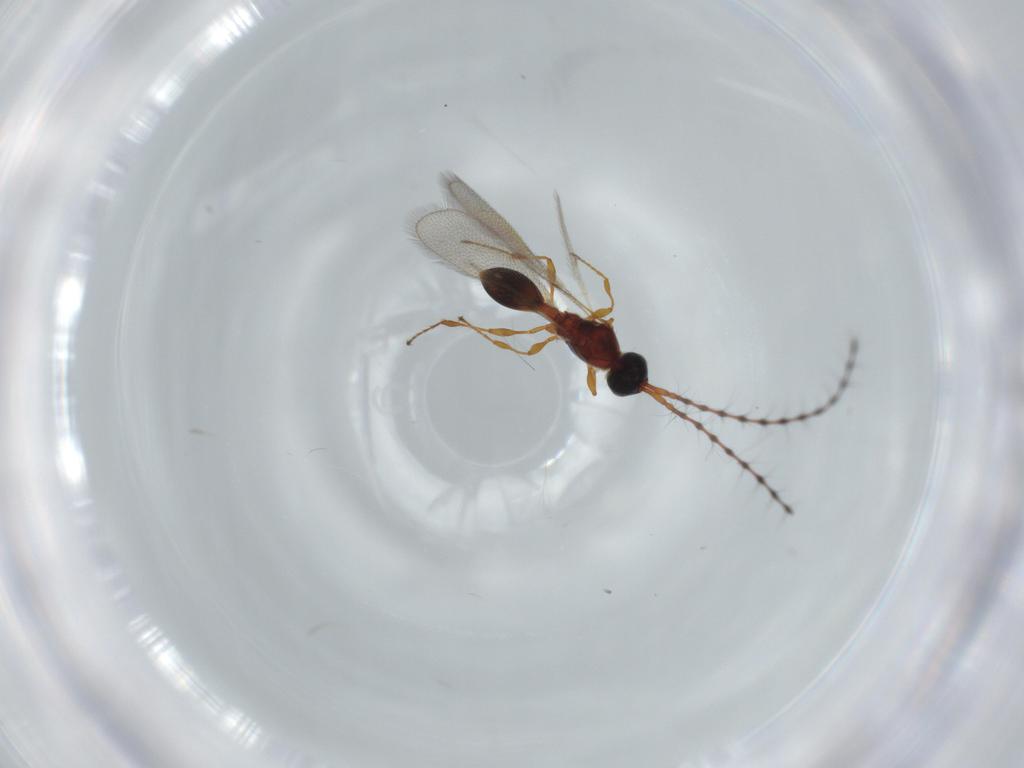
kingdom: Animalia
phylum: Arthropoda
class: Insecta
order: Hymenoptera
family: Diapriidae
